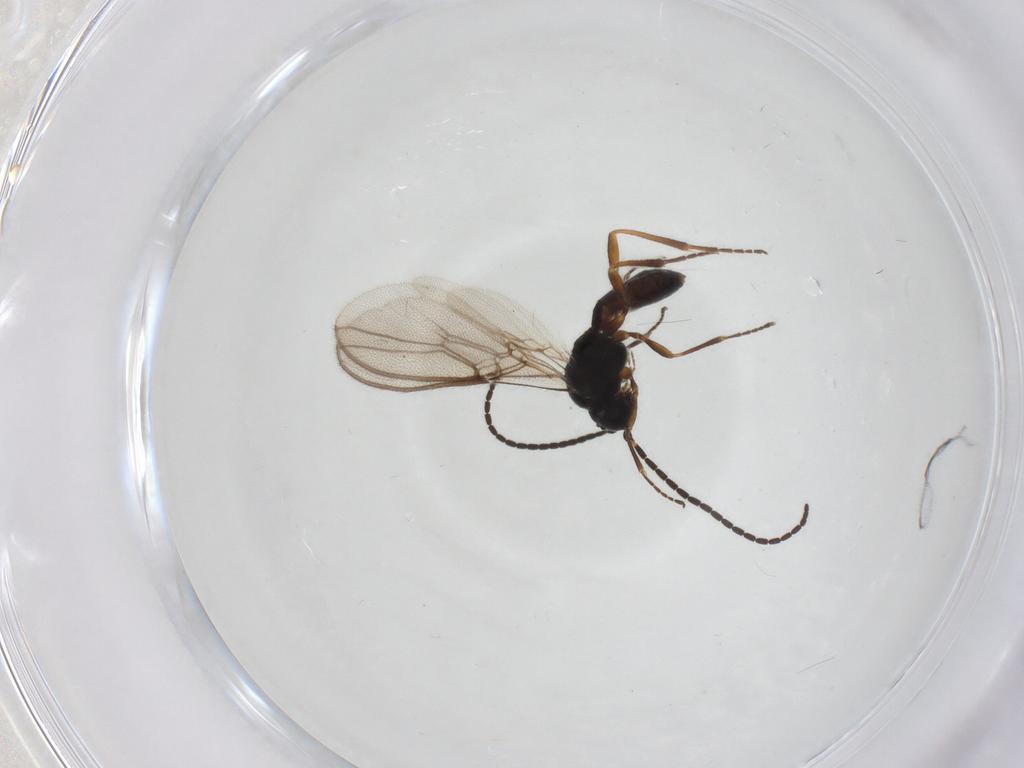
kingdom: Animalia
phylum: Arthropoda
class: Insecta
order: Hymenoptera
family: Braconidae
